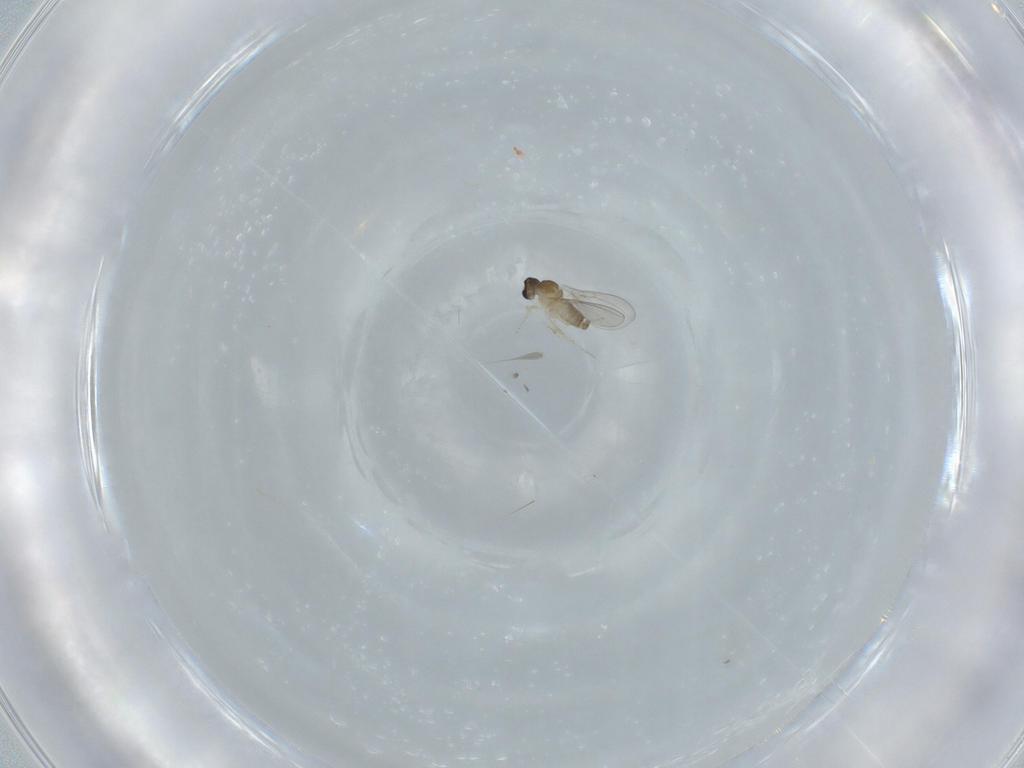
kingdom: Animalia
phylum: Arthropoda
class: Insecta
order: Diptera
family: Cecidomyiidae
